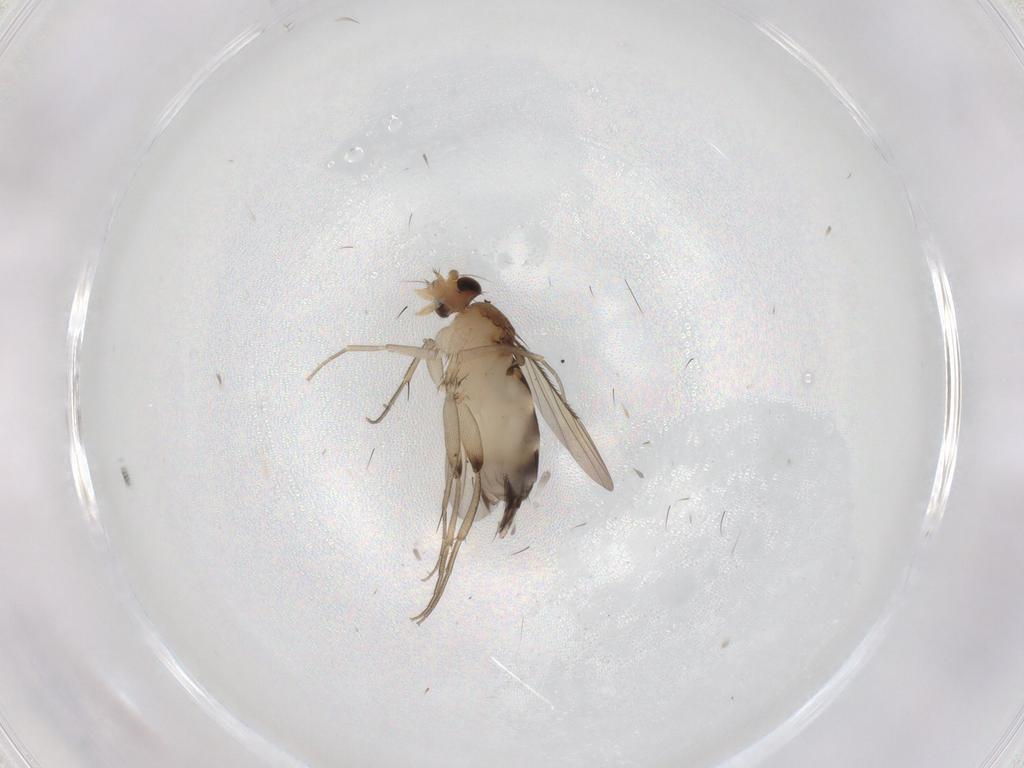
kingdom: Animalia
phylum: Arthropoda
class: Insecta
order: Diptera
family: Phoridae
